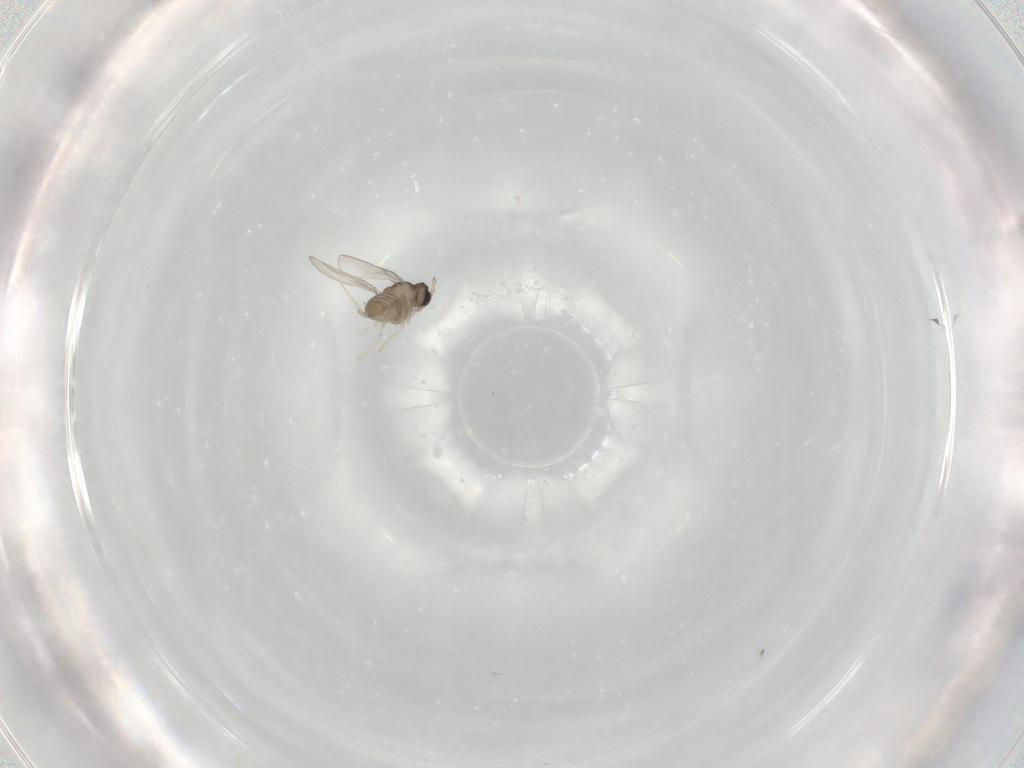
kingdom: Animalia
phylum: Arthropoda
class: Insecta
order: Diptera
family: Cecidomyiidae
